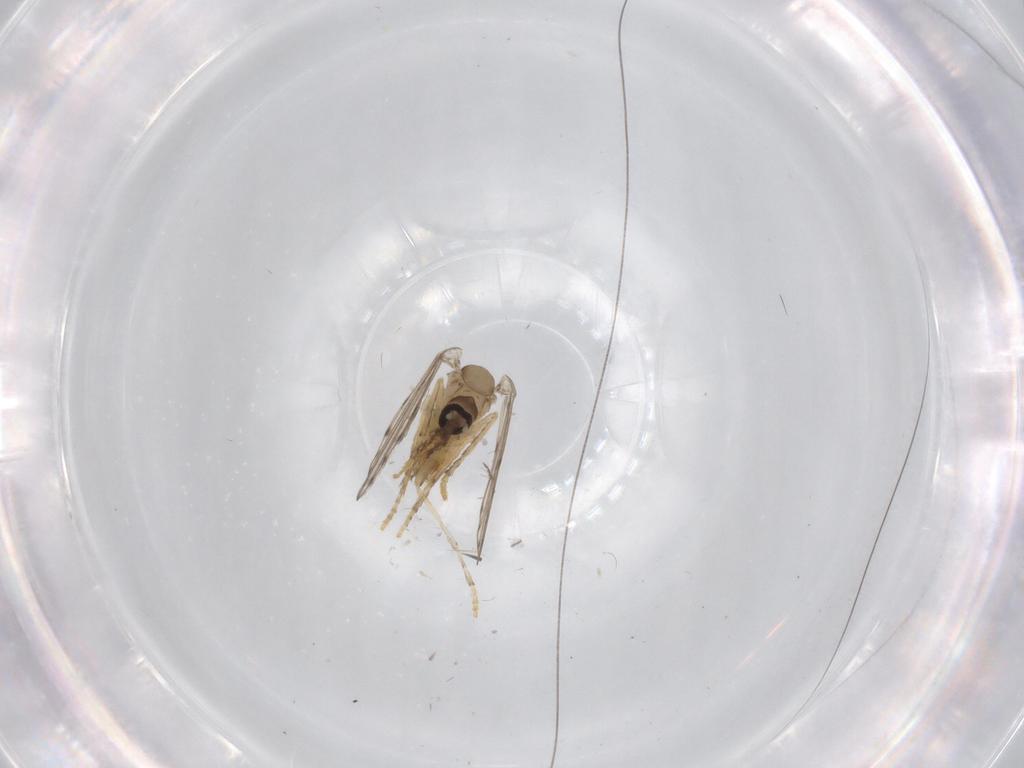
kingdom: Animalia
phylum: Arthropoda
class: Insecta
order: Diptera
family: Chironomidae
